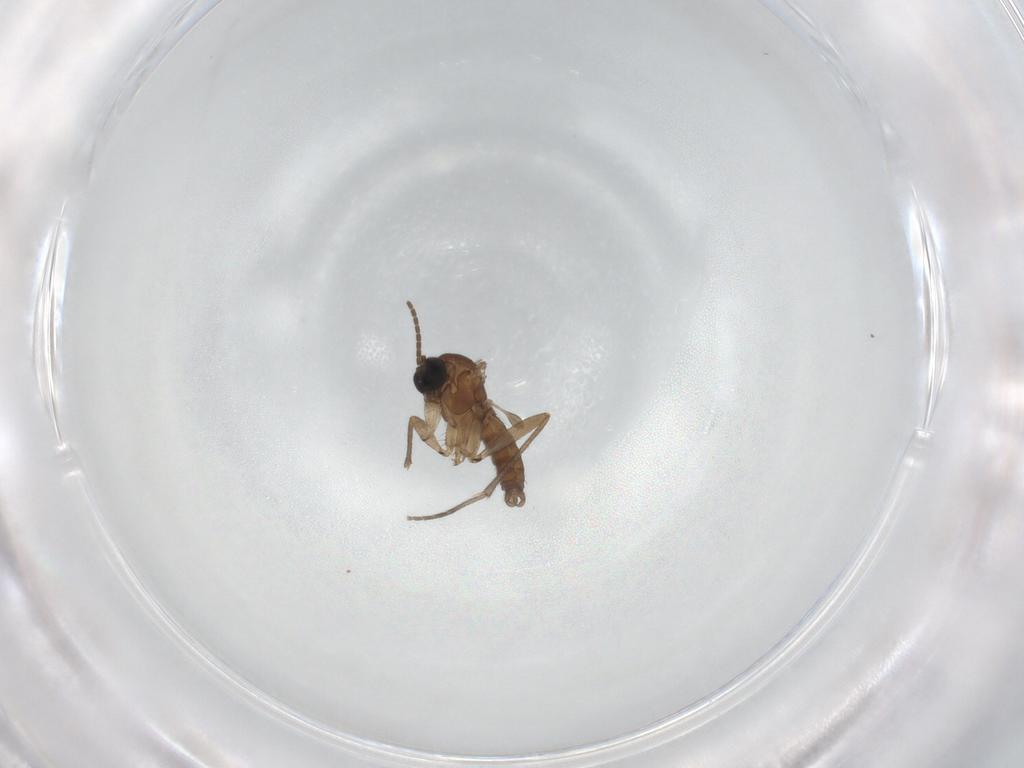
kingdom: Animalia
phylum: Arthropoda
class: Insecta
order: Diptera
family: Sciaridae
